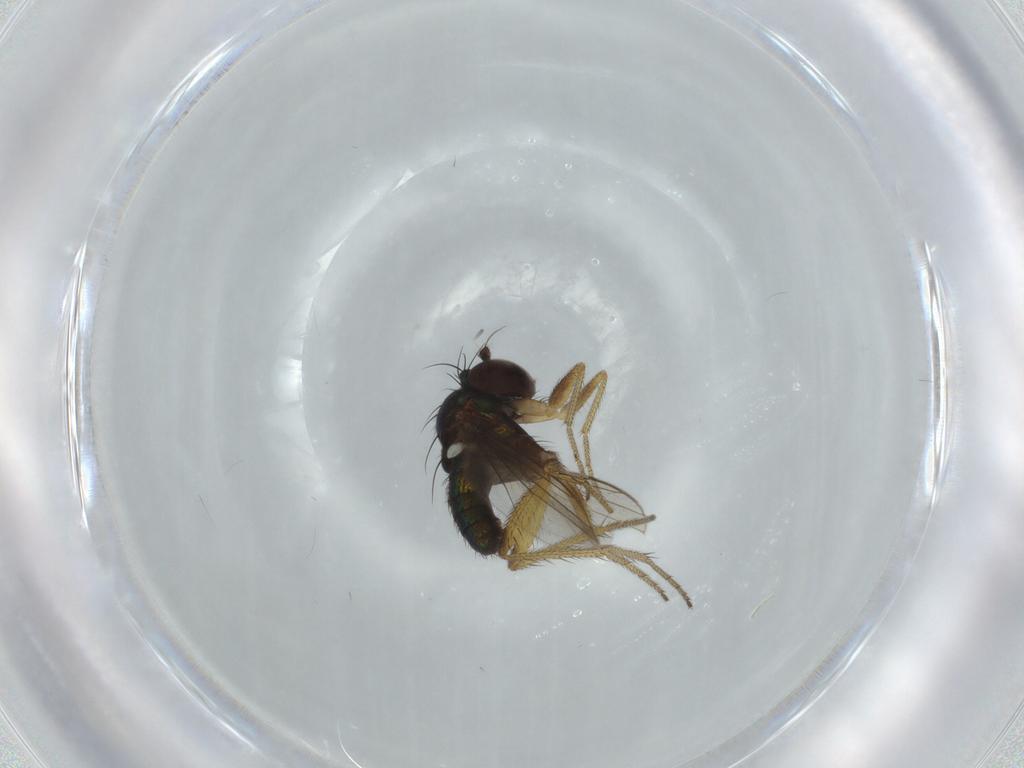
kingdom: Animalia
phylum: Arthropoda
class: Insecta
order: Diptera
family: Dolichopodidae
